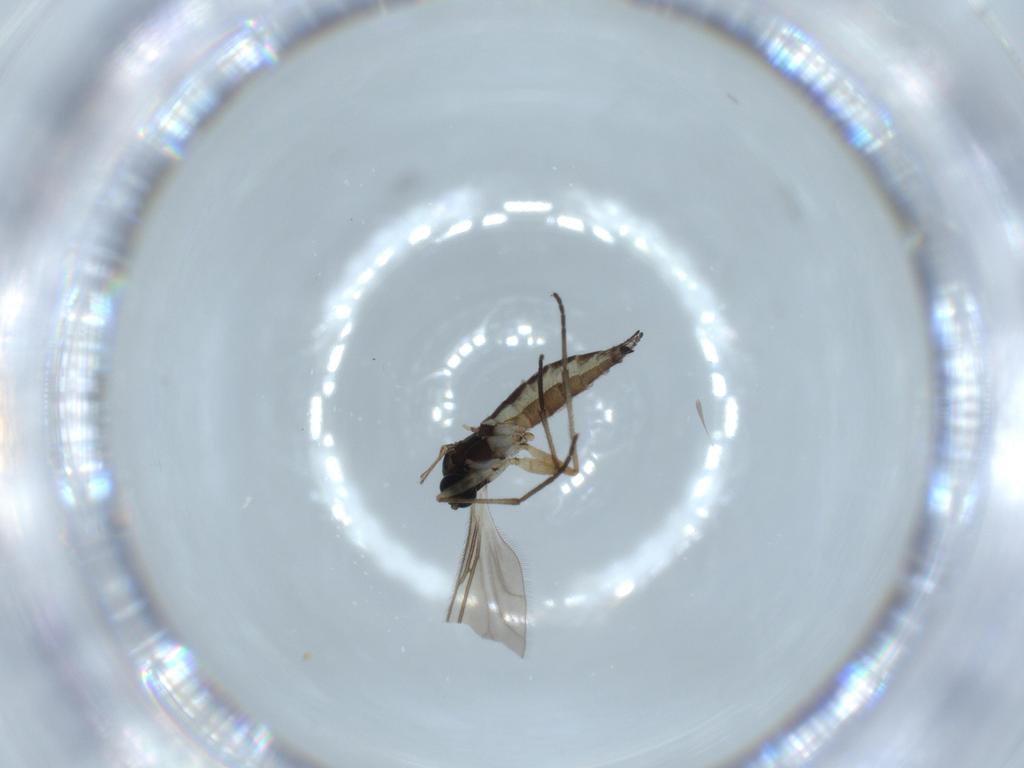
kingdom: Animalia
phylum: Arthropoda
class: Insecta
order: Diptera
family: Sciaridae
